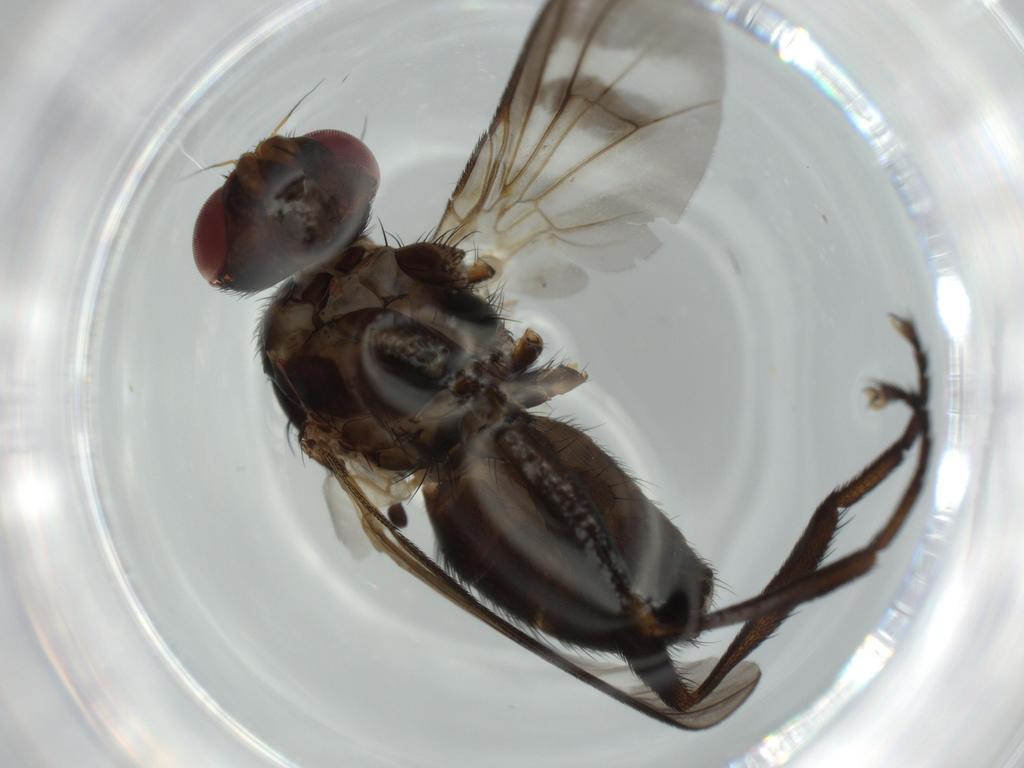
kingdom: Animalia
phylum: Arthropoda
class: Insecta
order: Diptera
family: Calliphoridae
